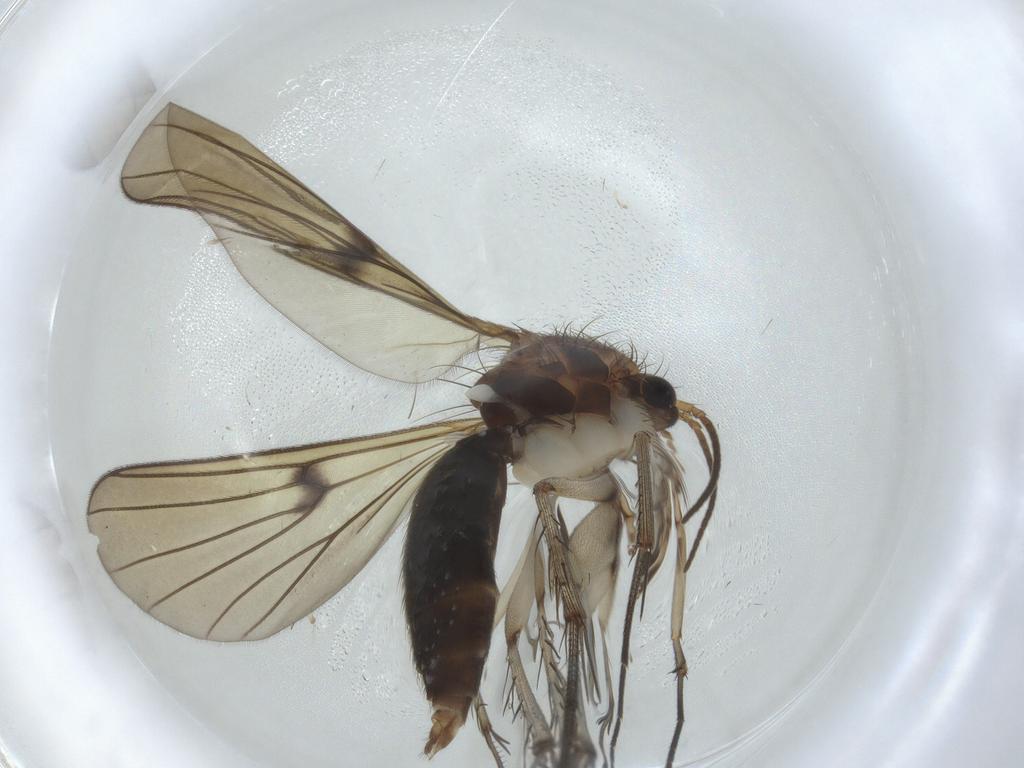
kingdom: Animalia
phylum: Arthropoda
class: Insecta
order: Diptera
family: Mycetophilidae
